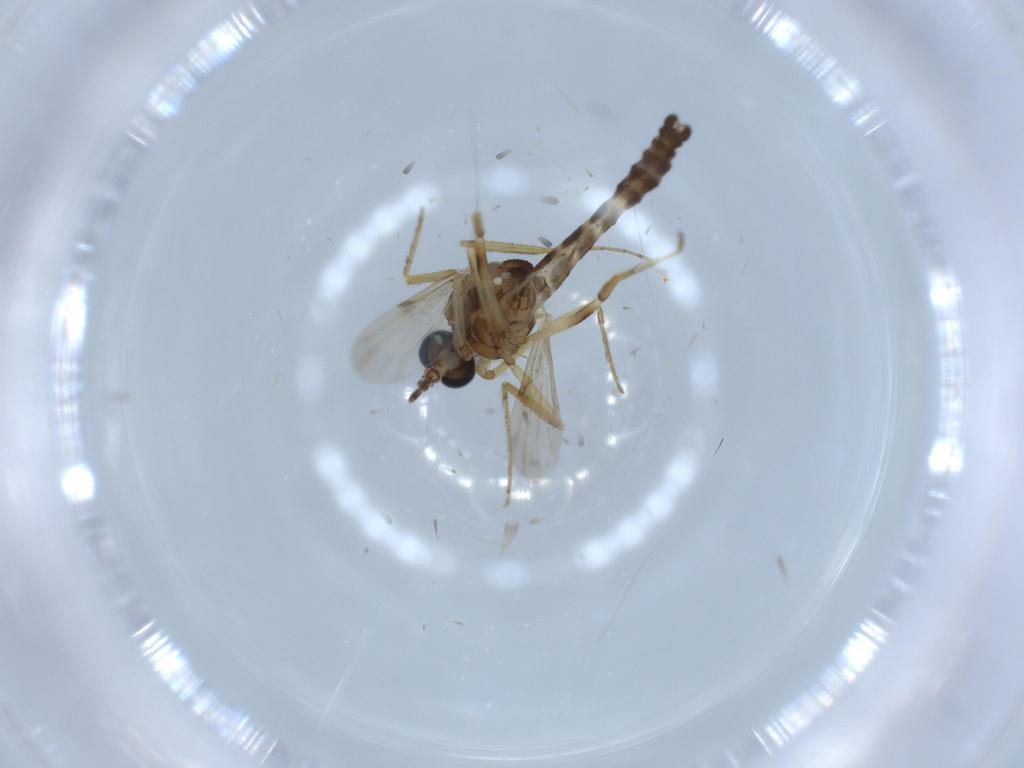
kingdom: Animalia
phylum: Arthropoda
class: Insecta
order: Diptera
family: Ceratopogonidae
